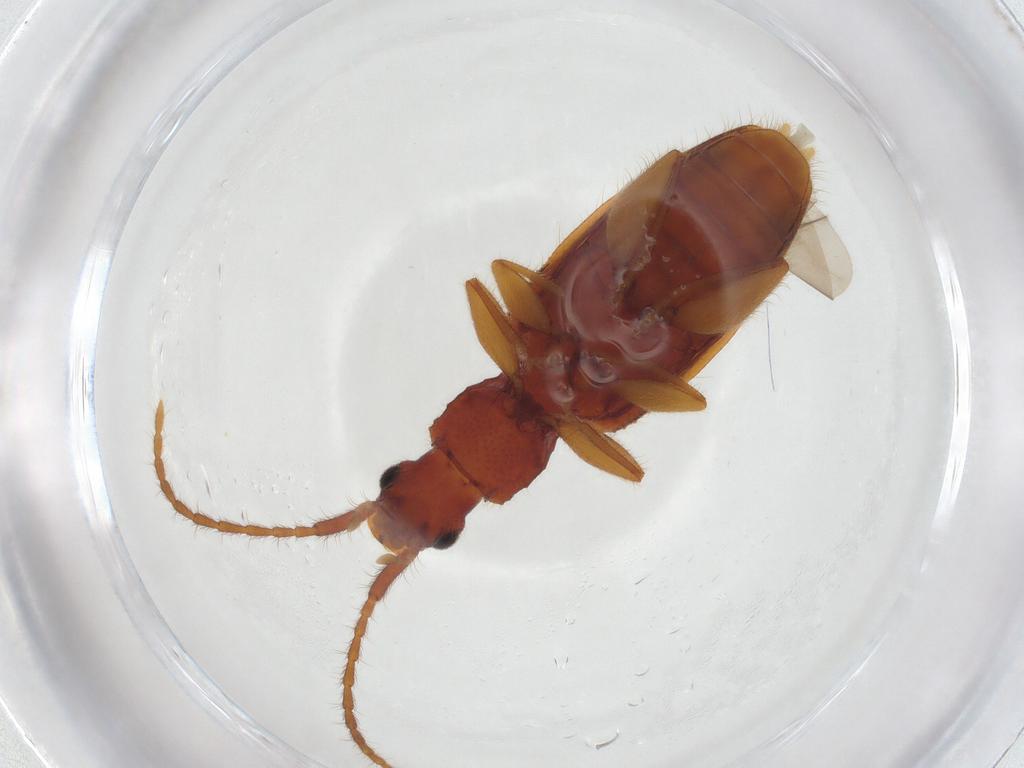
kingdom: Animalia
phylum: Arthropoda
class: Insecta
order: Coleoptera
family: Silvanidae
